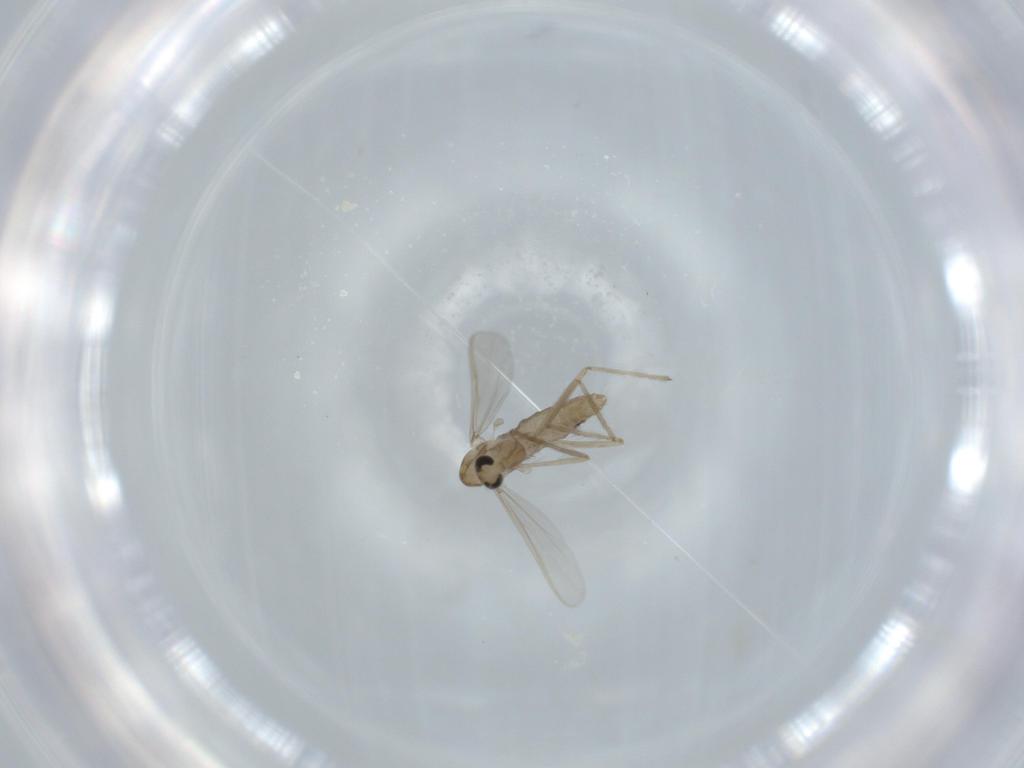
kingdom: Animalia
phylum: Arthropoda
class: Insecta
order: Diptera
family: Chironomidae
